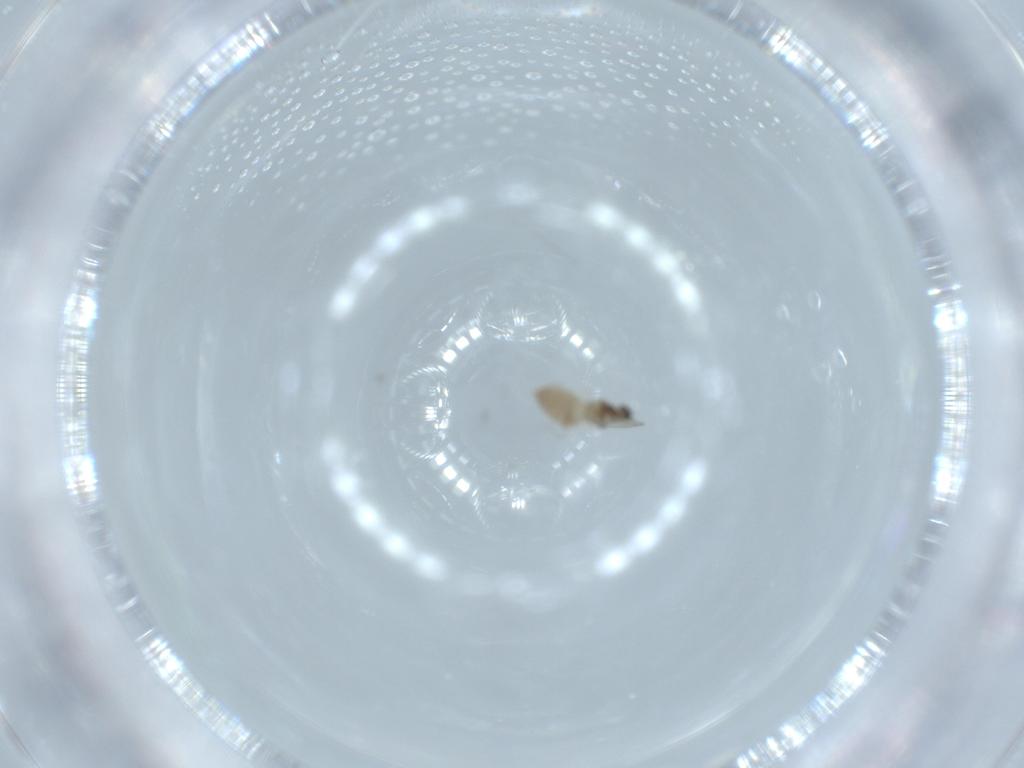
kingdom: Animalia
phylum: Arthropoda
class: Insecta
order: Diptera
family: Cecidomyiidae
